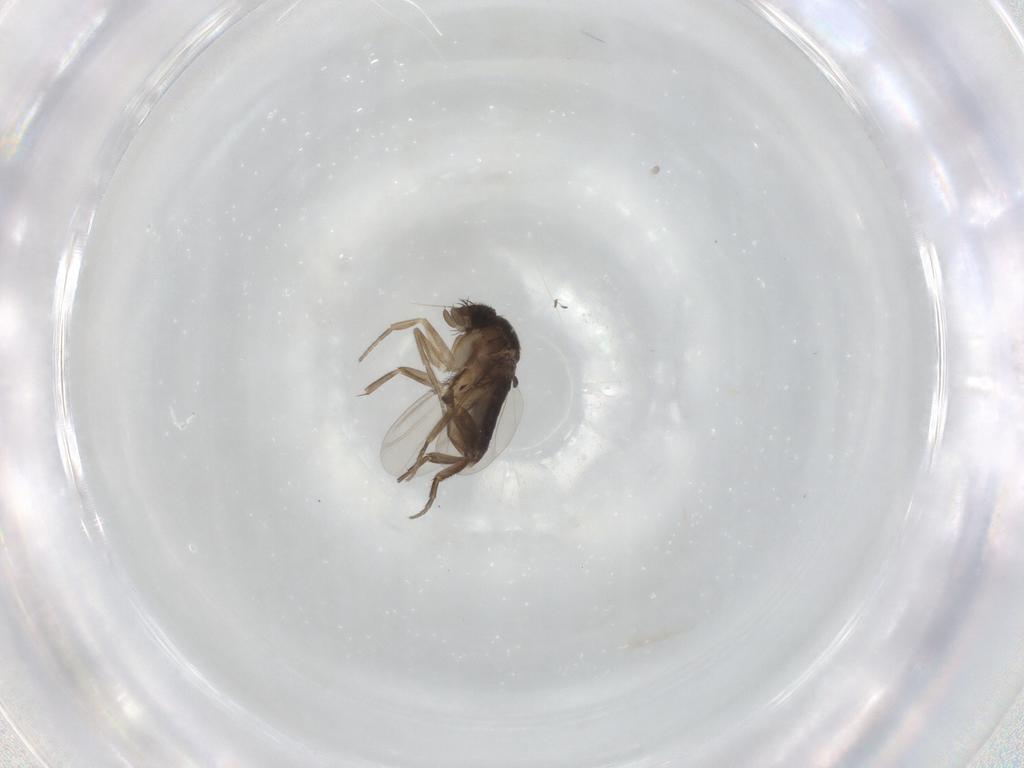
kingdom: Animalia
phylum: Arthropoda
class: Insecta
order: Diptera
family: Phoridae
